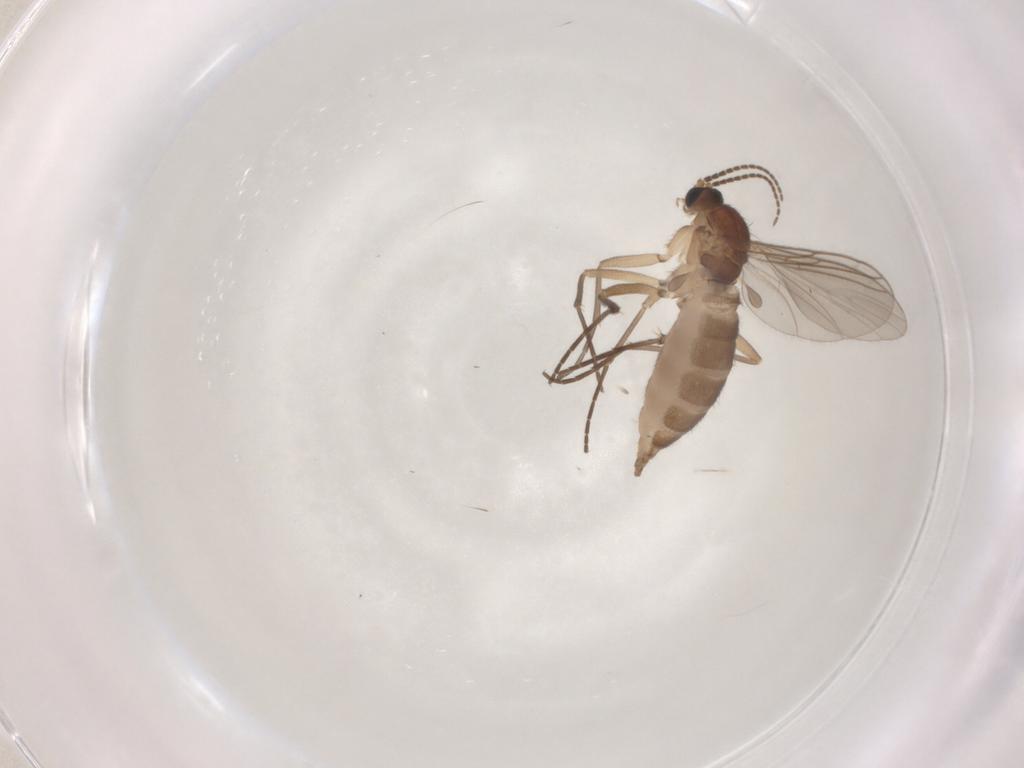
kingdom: Animalia
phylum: Arthropoda
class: Insecta
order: Diptera
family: Sciaridae
